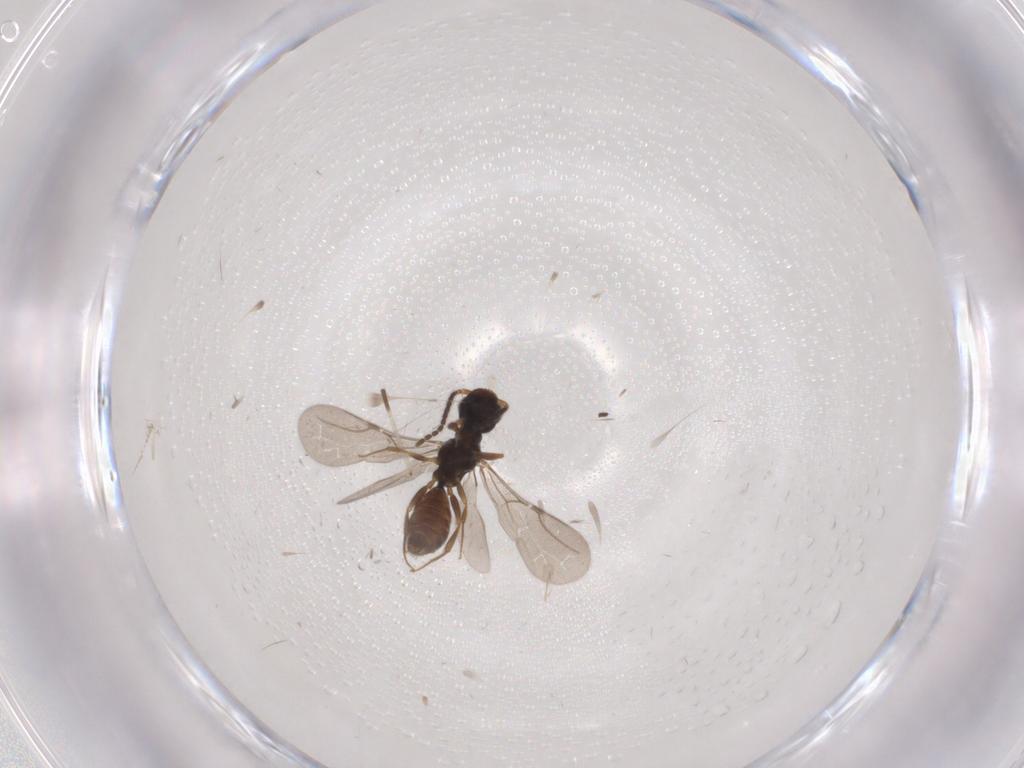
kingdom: Animalia
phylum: Arthropoda
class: Insecta
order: Hymenoptera
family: Bethylidae
